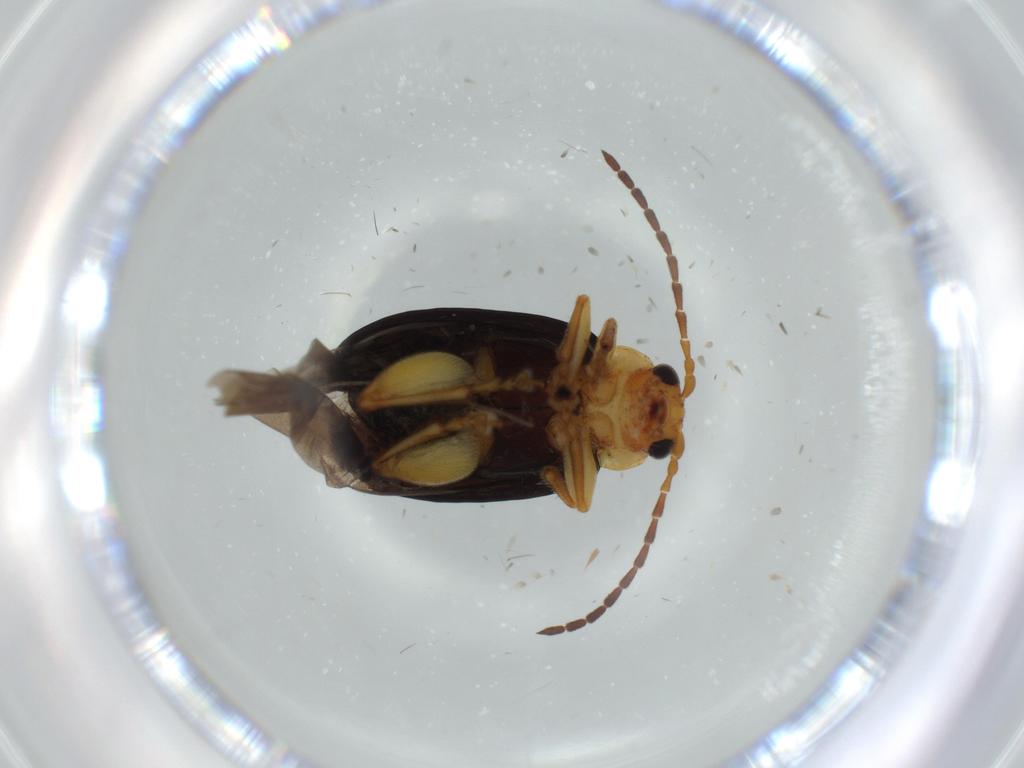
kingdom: Animalia
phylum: Arthropoda
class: Insecta
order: Coleoptera
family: Chrysomelidae
